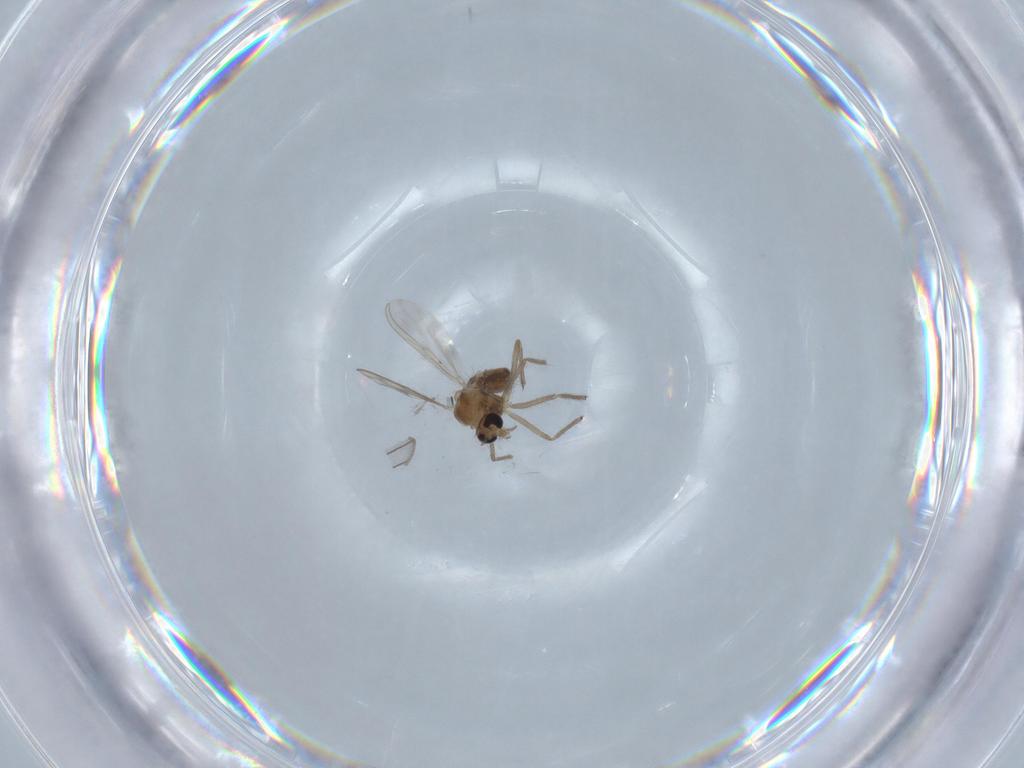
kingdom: Animalia
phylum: Arthropoda
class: Insecta
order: Diptera
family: Chironomidae
